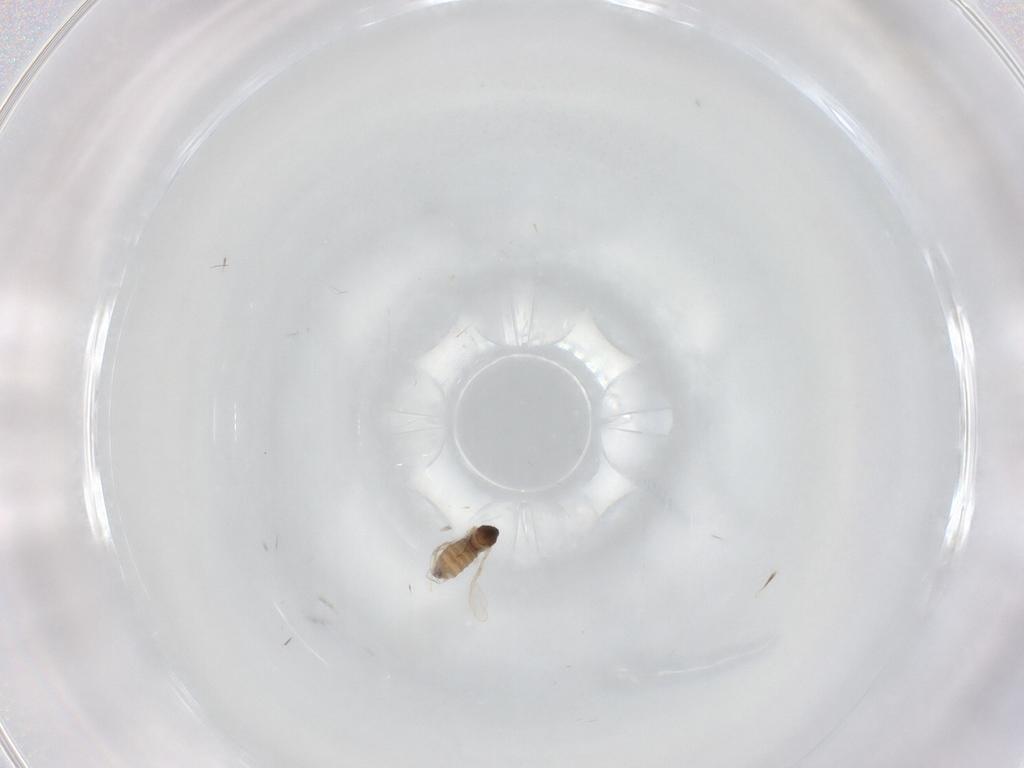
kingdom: Animalia
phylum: Arthropoda
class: Insecta
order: Diptera
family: Cecidomyiidae
